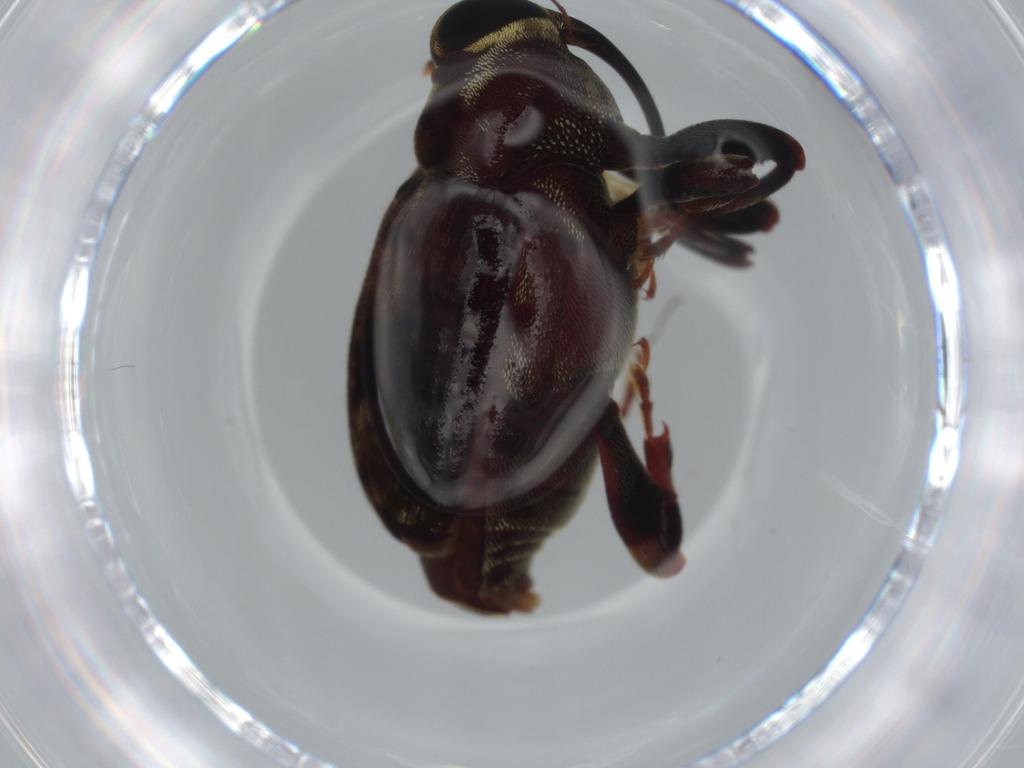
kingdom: Animalia
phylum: Arthropoda
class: Insecta
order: Coleoptera
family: Curculionidae
